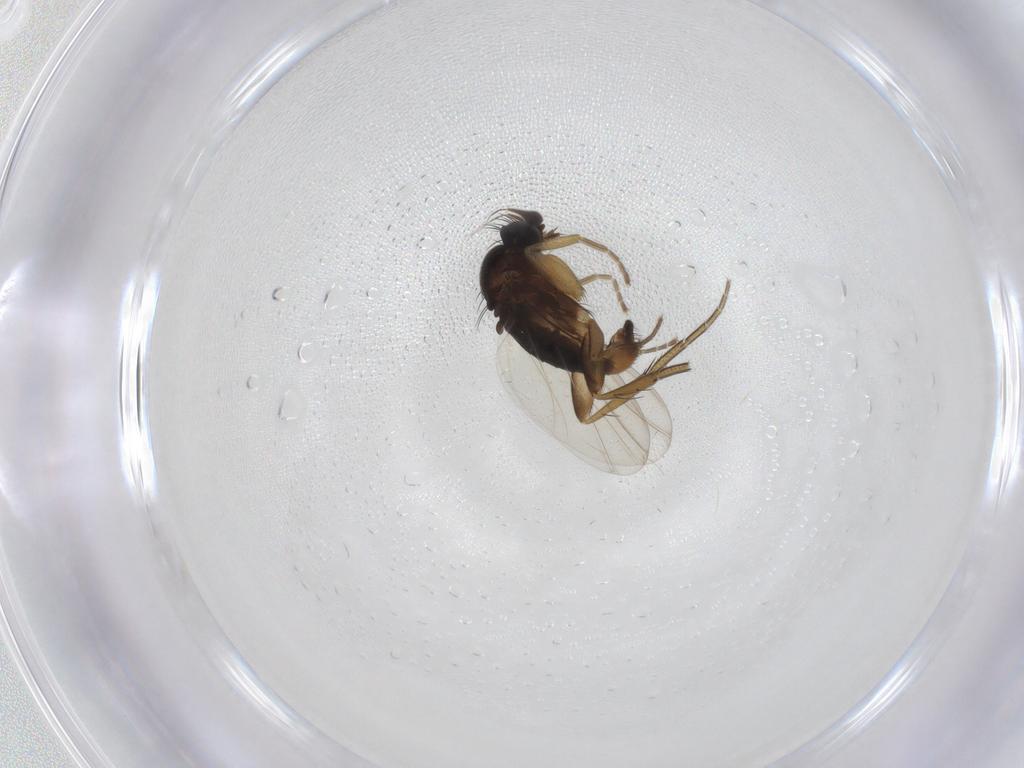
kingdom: Animalia
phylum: Arthropoda
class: Insecta
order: Diptera
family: Phoridae
